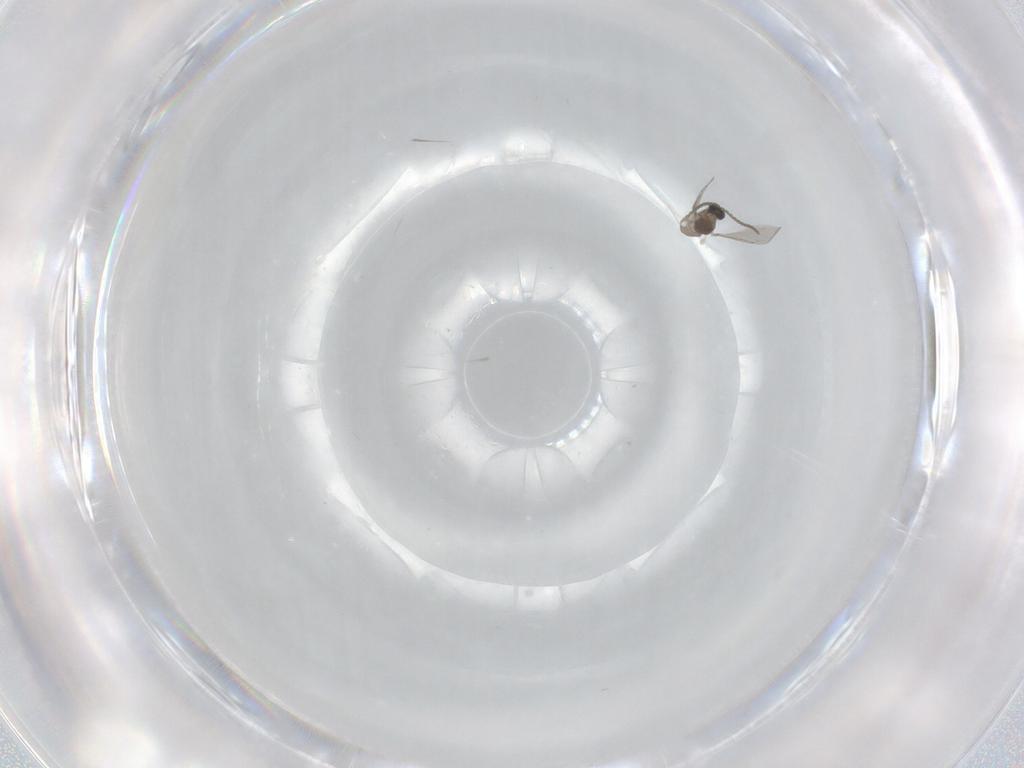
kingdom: Animalia
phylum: Arthropoda
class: Insecta
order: Diptera
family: Cecidomyiidae
